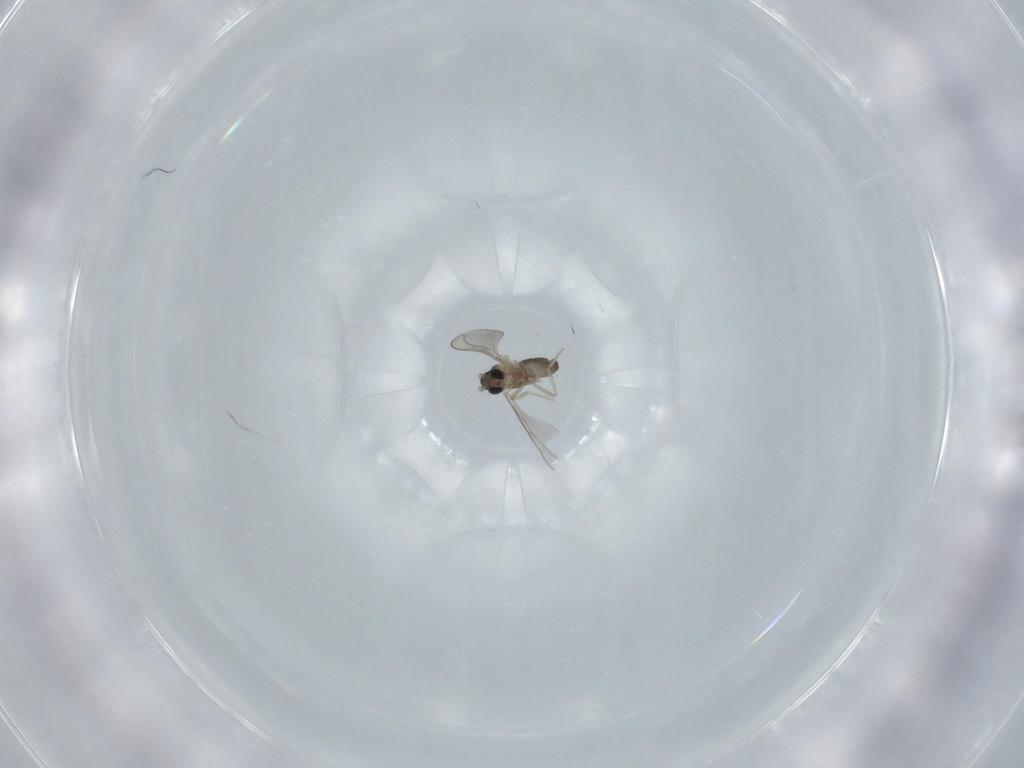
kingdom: Animalia
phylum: Arthropoda
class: Insecta
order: Diptera
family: Cecidomyiidae
